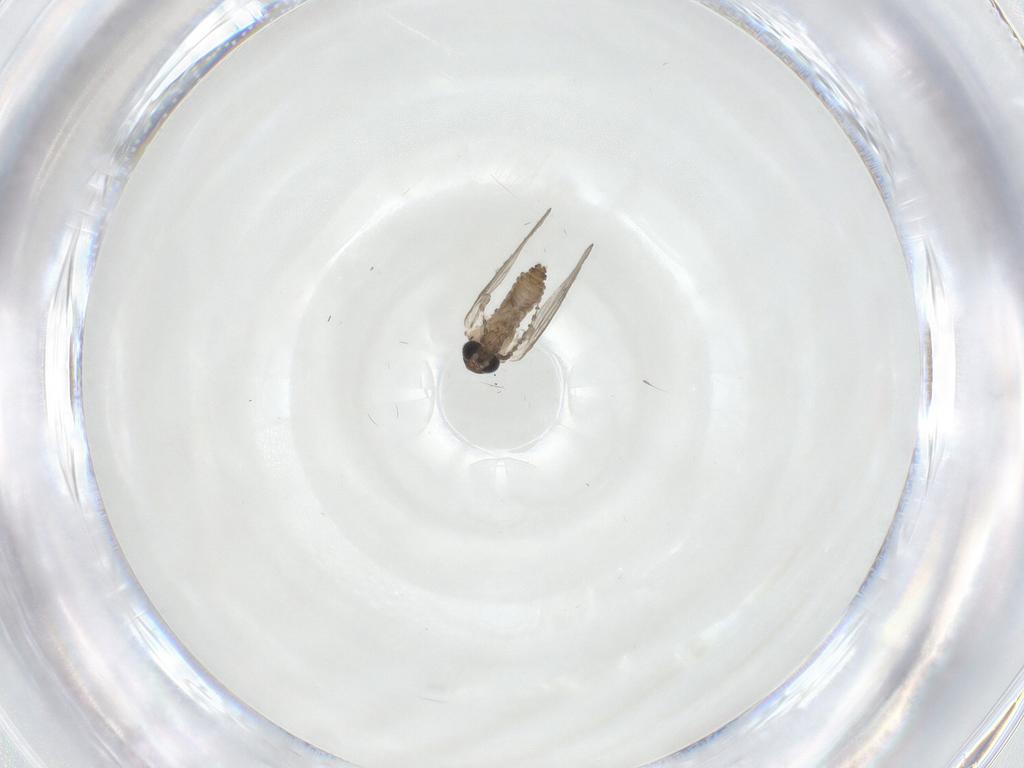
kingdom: Animalia
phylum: Arthropoda
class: Insecta
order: Diptera
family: Cecidomyiidae
